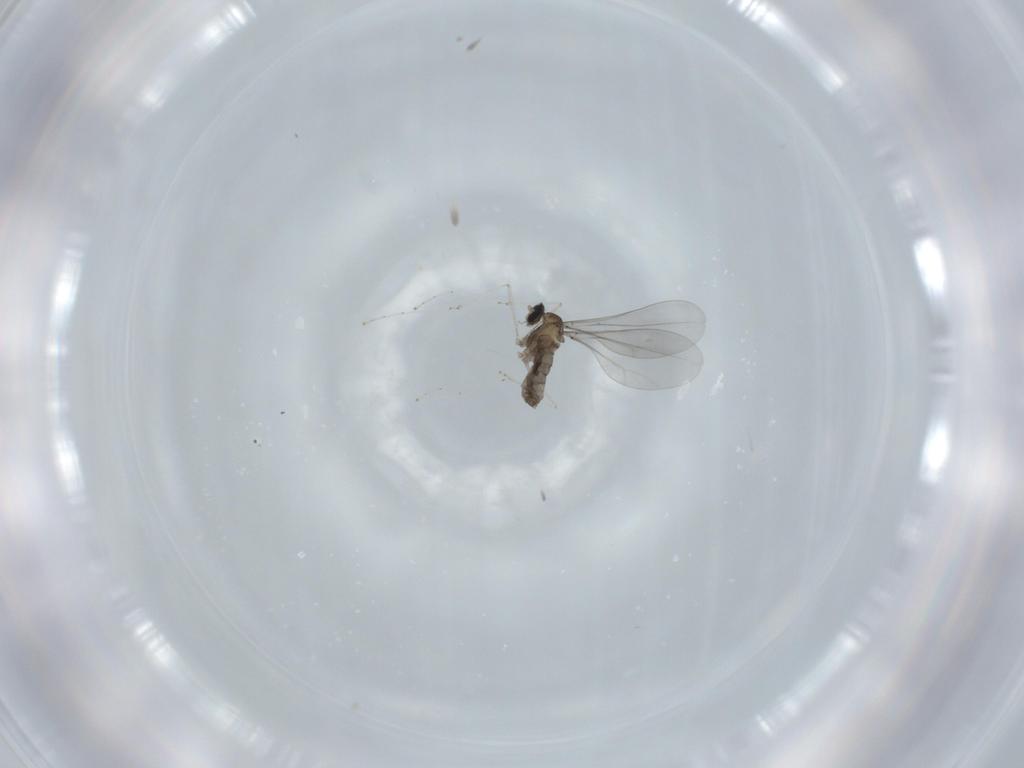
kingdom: Animalia
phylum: Arthropoda
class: Insecta
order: Diptera
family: Cecidomyiidae
